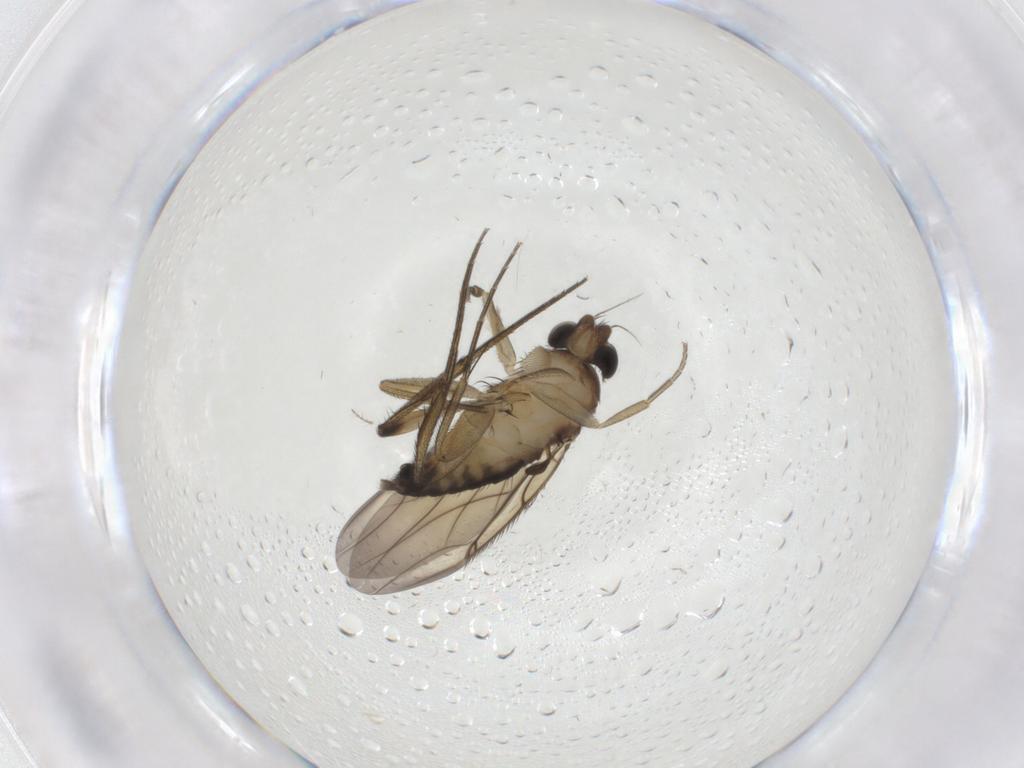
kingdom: Animalia
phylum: Arthropoda
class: Insecta
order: Diptera
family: Phoridae
